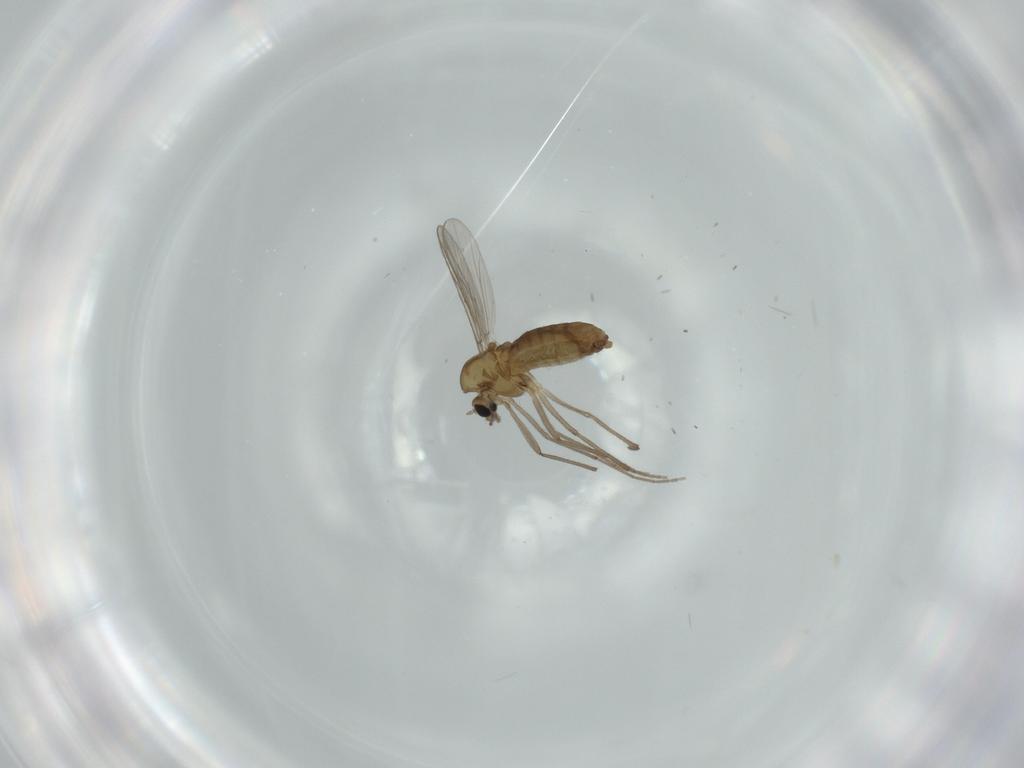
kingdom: Animalia
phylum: Arthropoda
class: Insecta
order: Diptera
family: Chironomidae
